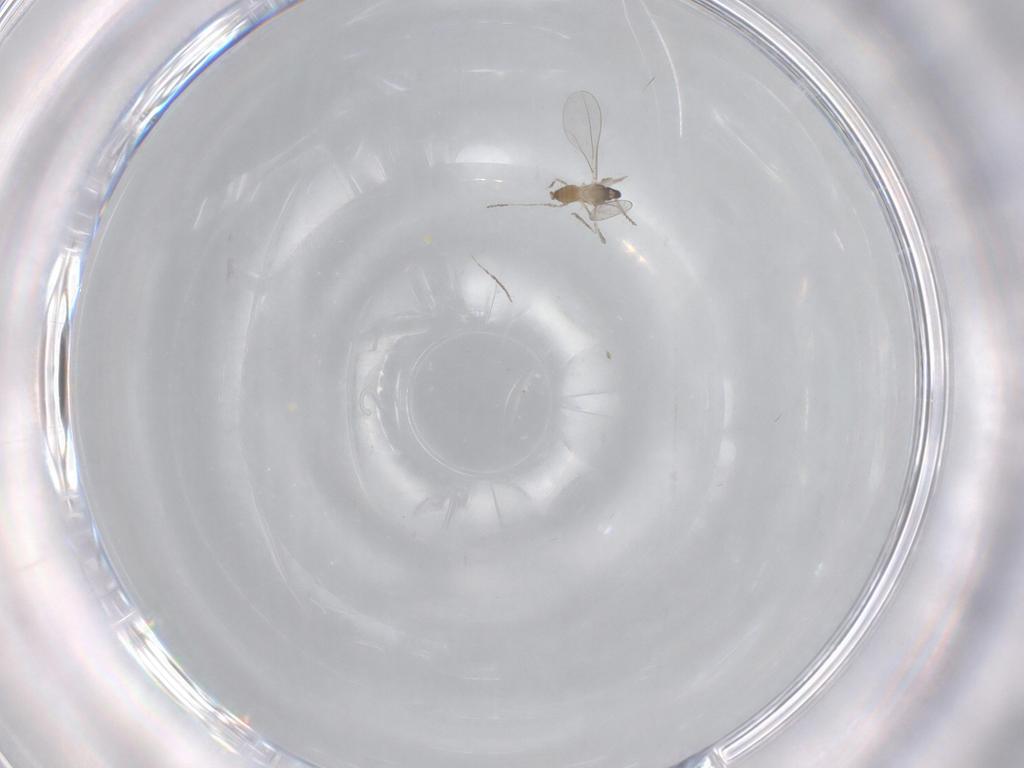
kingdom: Animalia
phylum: Arthropoda
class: Insecta
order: Diptera
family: Cecidomyiidae
